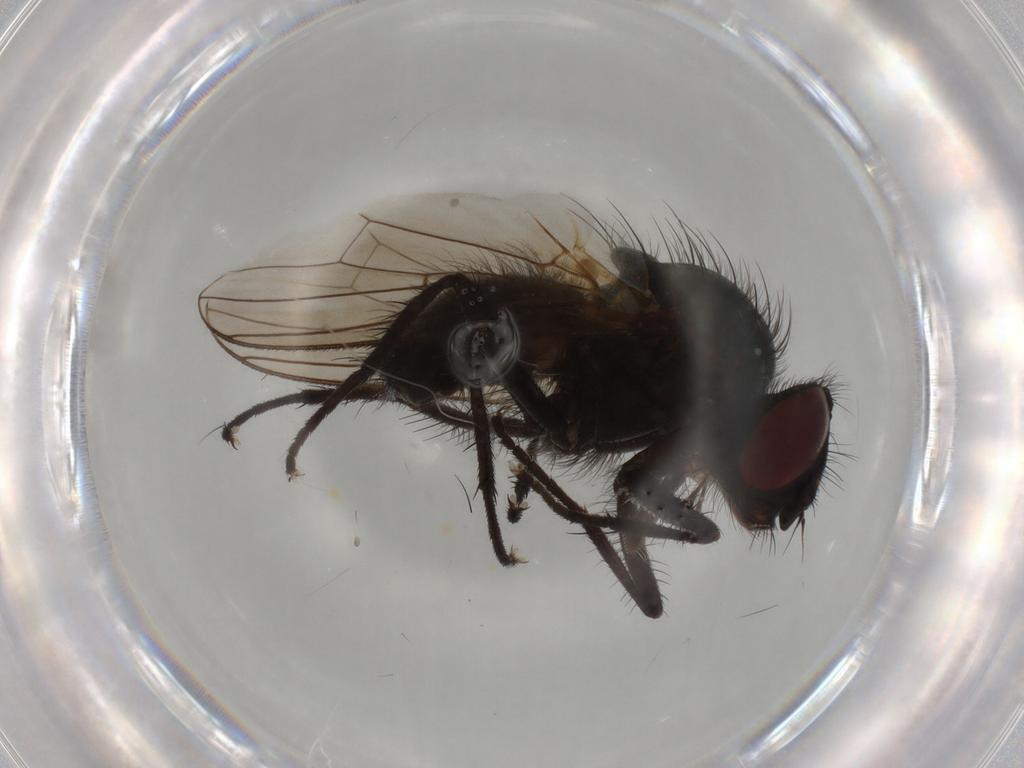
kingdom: Animalia
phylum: Arthropoda
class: Insecta
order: Diptera
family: Anthomyiidae
